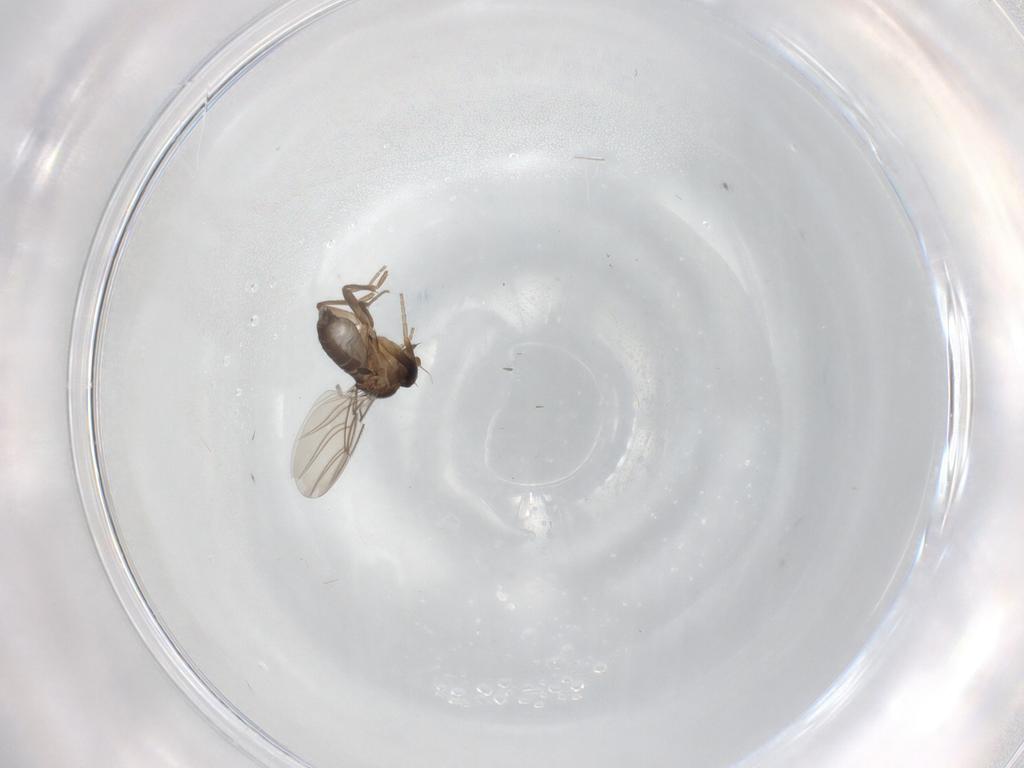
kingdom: Animalia
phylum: Arthropoda
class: Insecta
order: Diptera
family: Phoridae
